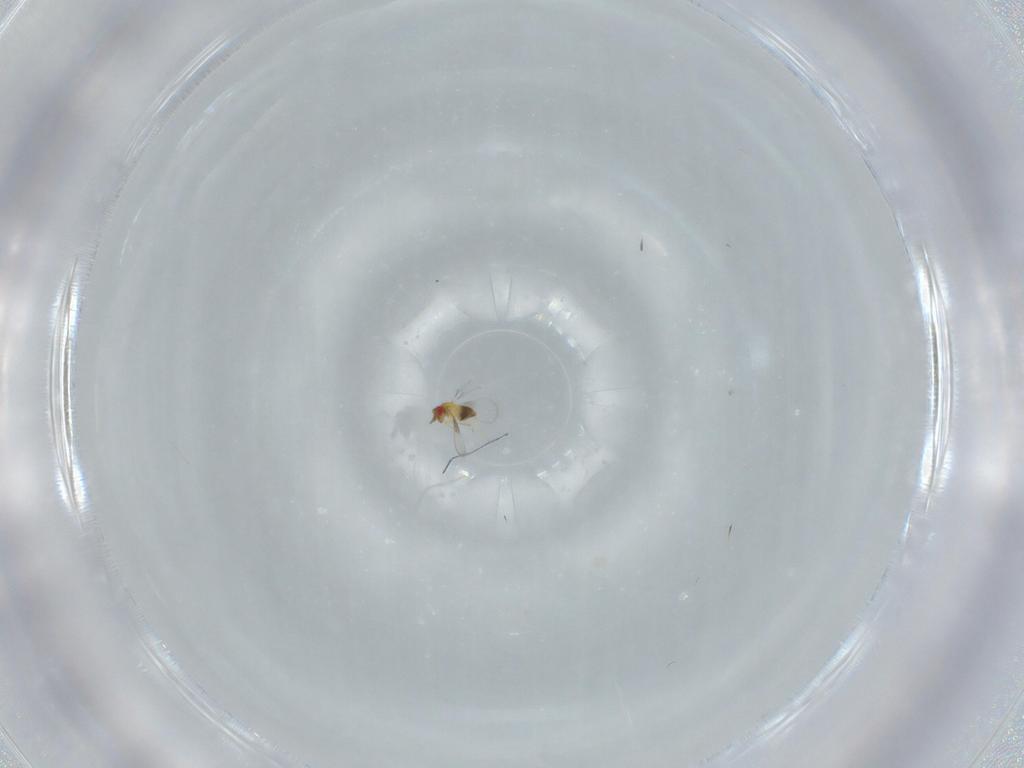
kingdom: Animalia
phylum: Arthropoda
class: Insecta
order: Hymenoptera
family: Trichogrammatidae
